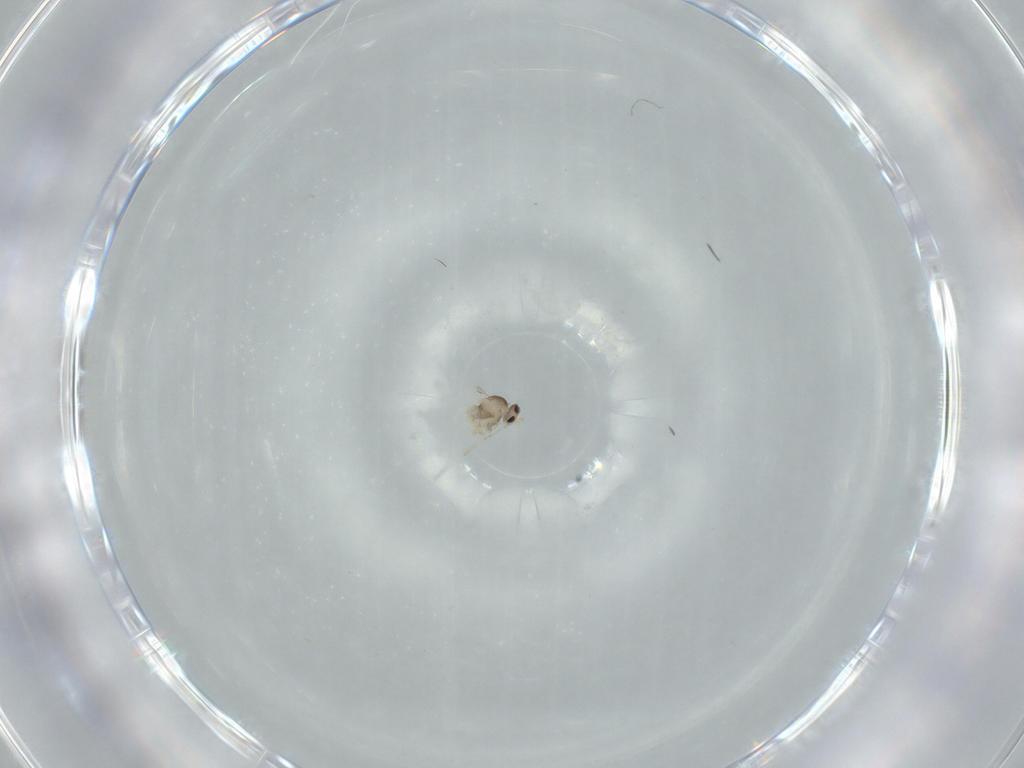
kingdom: Animalia
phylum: Arthropoda
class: Insecta
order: Diptera
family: Cecidomyiidae
